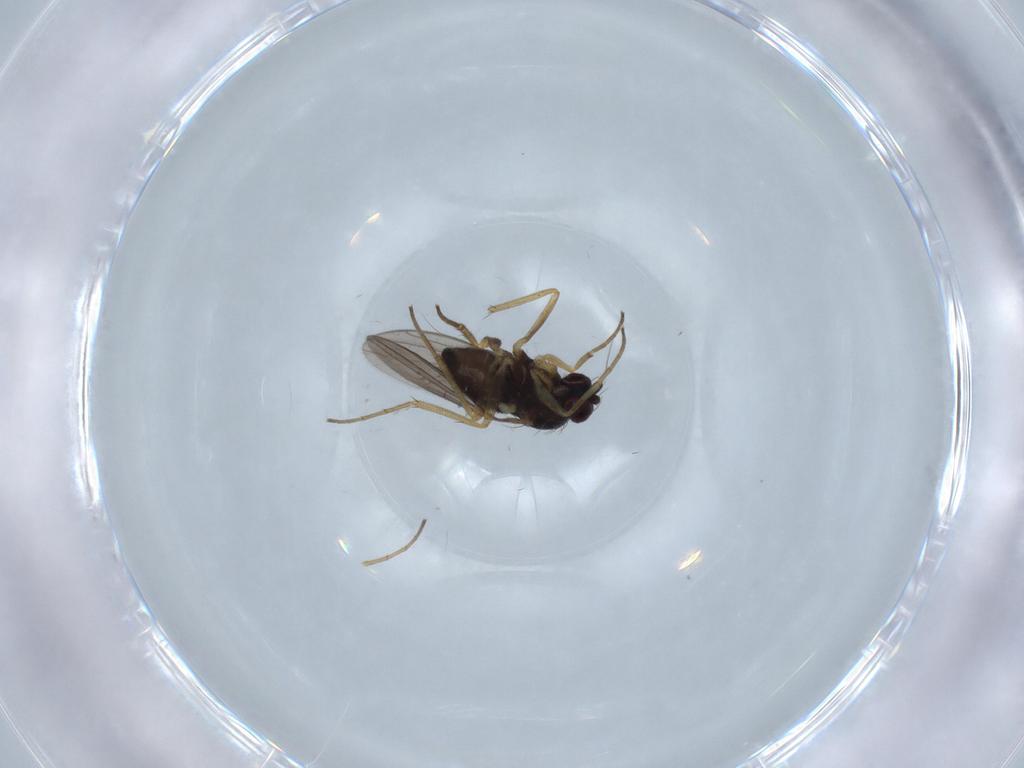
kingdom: Animalia
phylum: Arthropoda
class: Insecta
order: Diptera
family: Dolichopodidae
